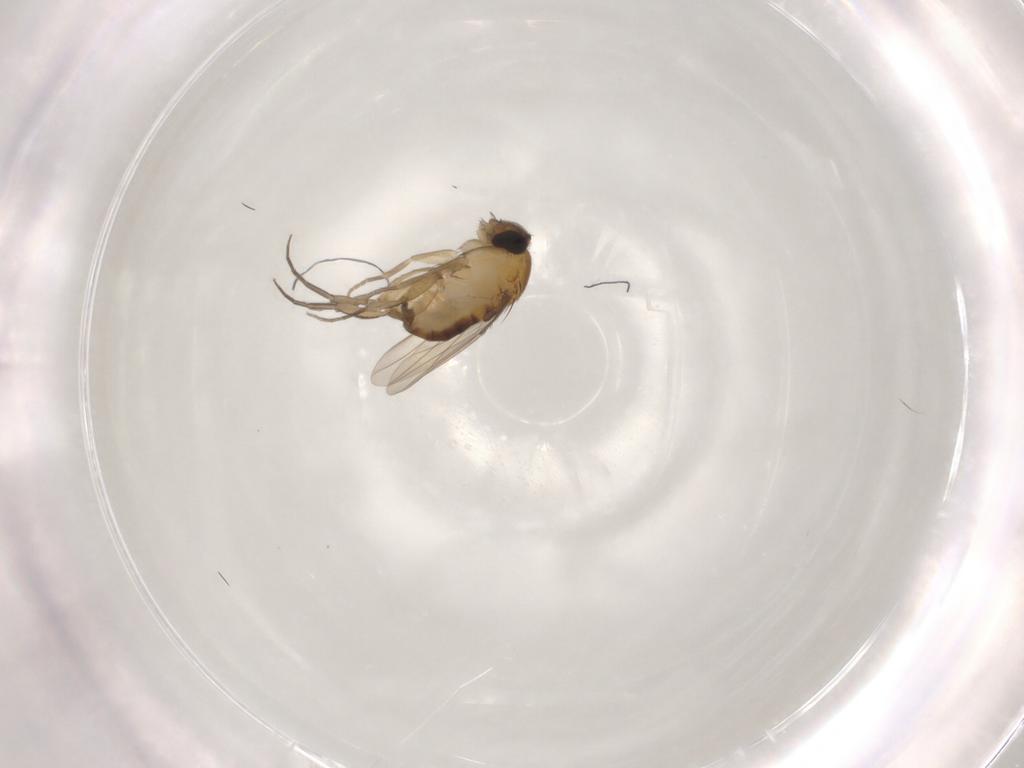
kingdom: Animalia
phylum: Arthropoda
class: Insecta
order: Diptera
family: Phoridae
